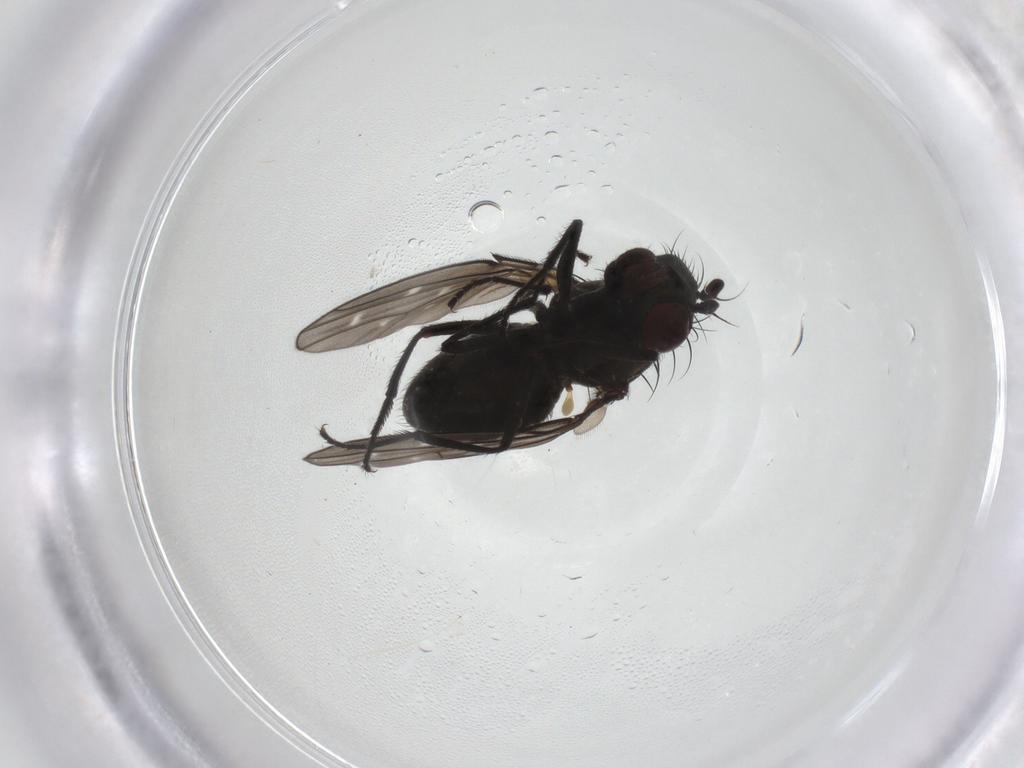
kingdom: Animalia
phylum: Arthropoda
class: Insecta
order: Diptera
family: Ephydridae
